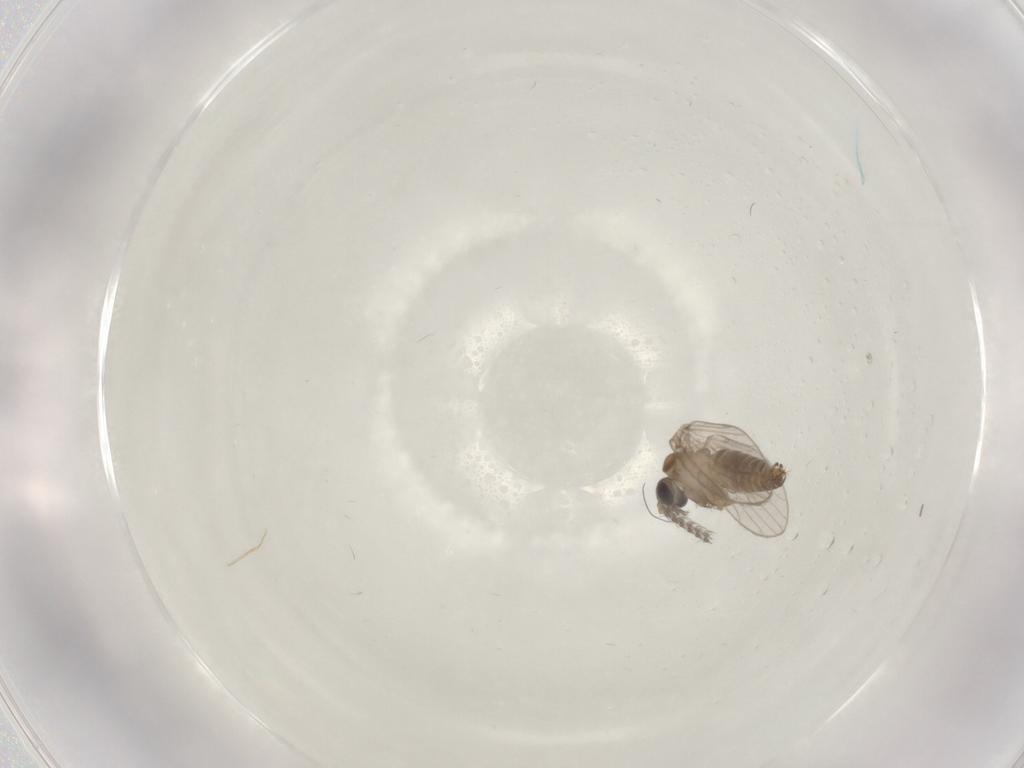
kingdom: Animalia
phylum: Arthropoda
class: Insecta
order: Diptera
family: Psychodidae
